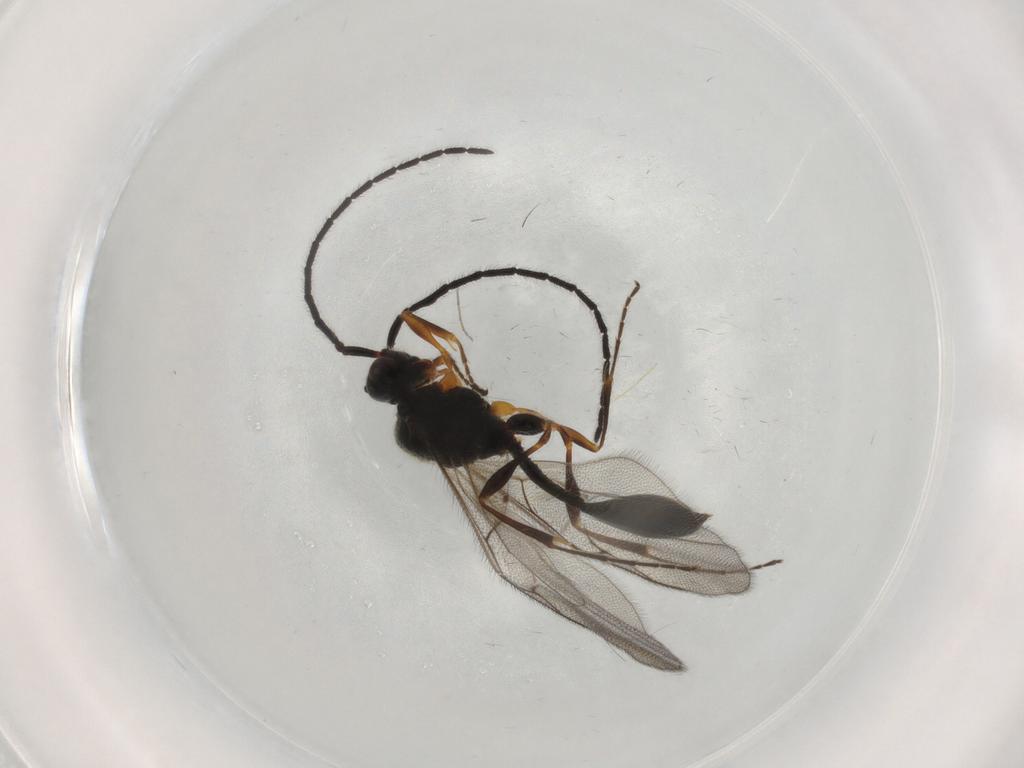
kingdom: Animalia
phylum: Arthropoda
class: Insecta
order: Hymenoptera
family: Diapriidae
